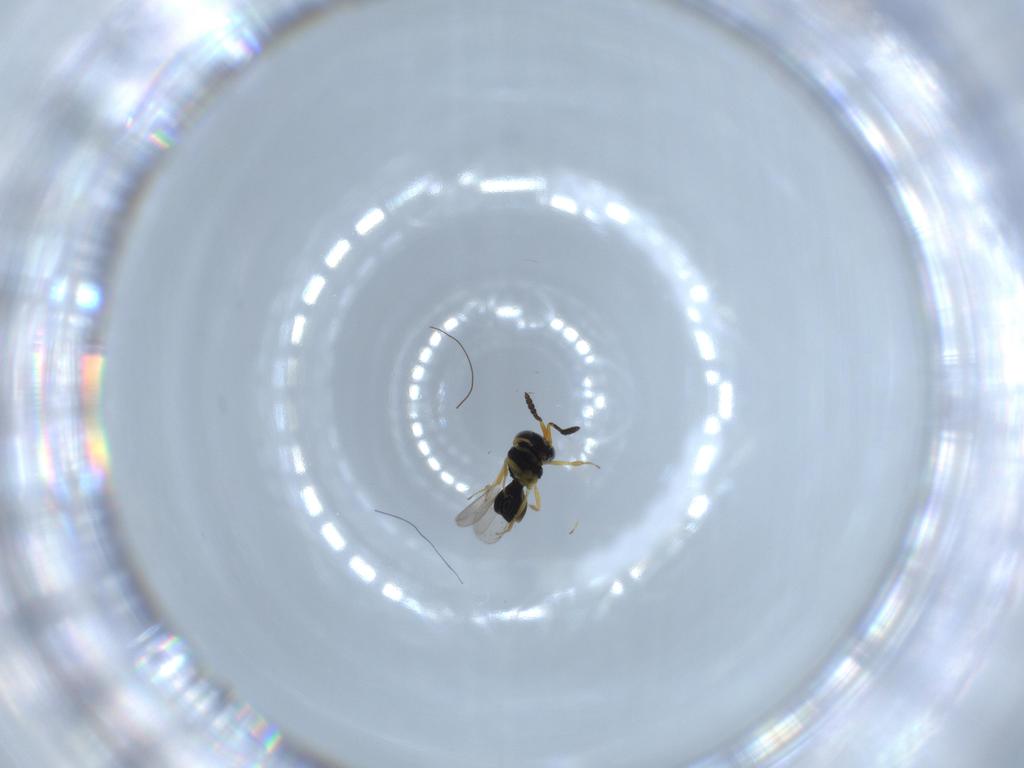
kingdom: Animalia
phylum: Arthropoda
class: Insecta
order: Hymenoptera
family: Scelionidae
